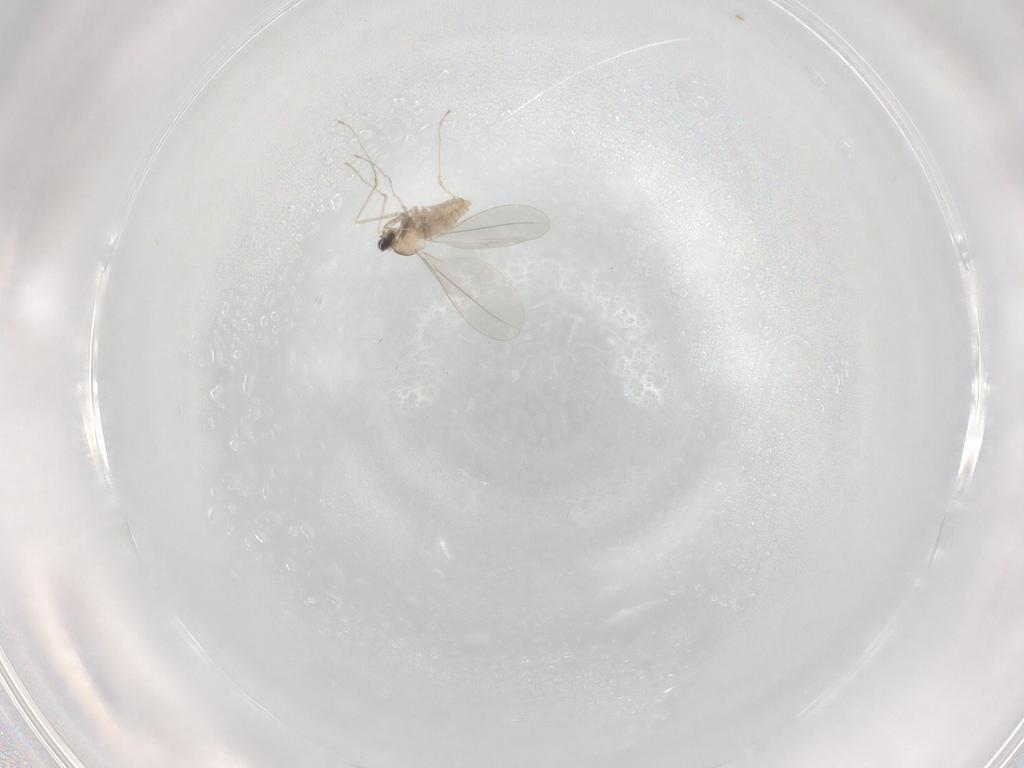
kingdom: Animalia
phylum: Arthropoda
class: Insecta
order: Diptera
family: Cecidomyiidae
